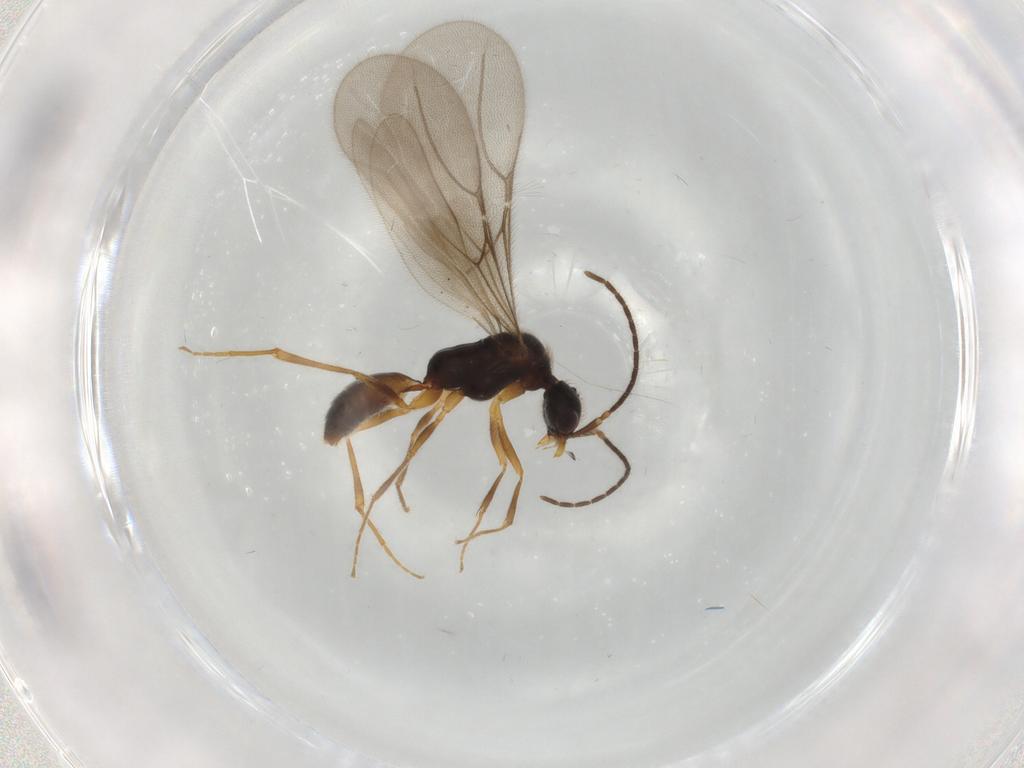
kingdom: Animalia
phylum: Arthropoda
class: Insecta
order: Hymenoptera
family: Bethylidae
